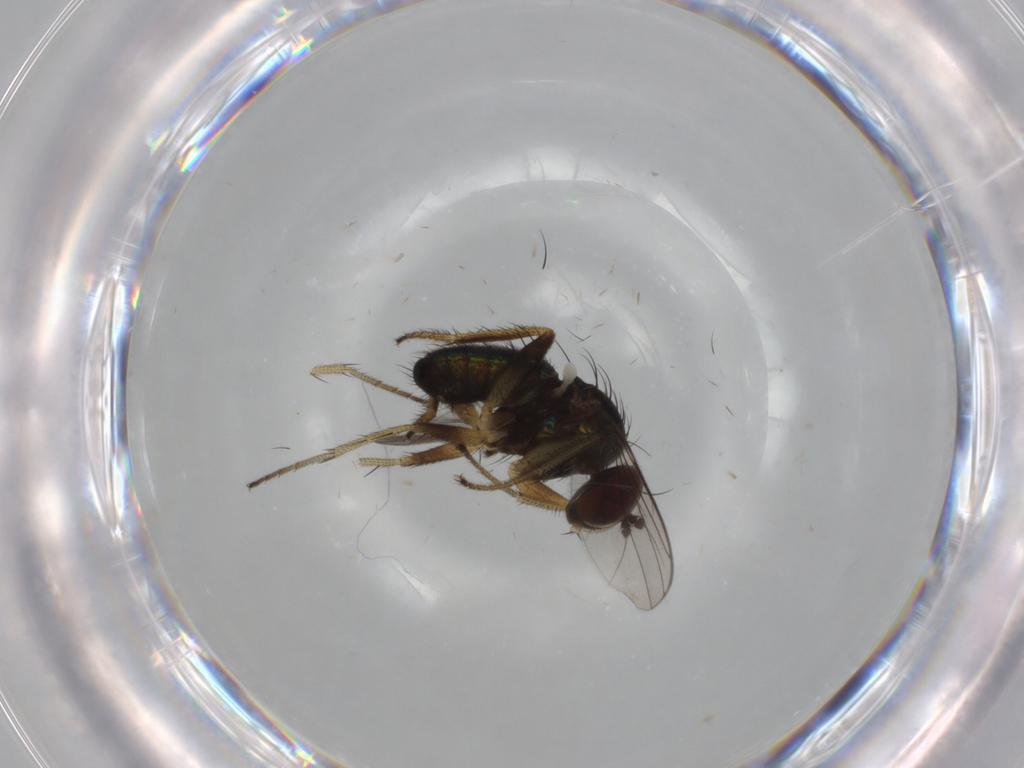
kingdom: Animalia
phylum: Arthropoda
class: Insecta
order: Diptera
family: Dolichopodidae
